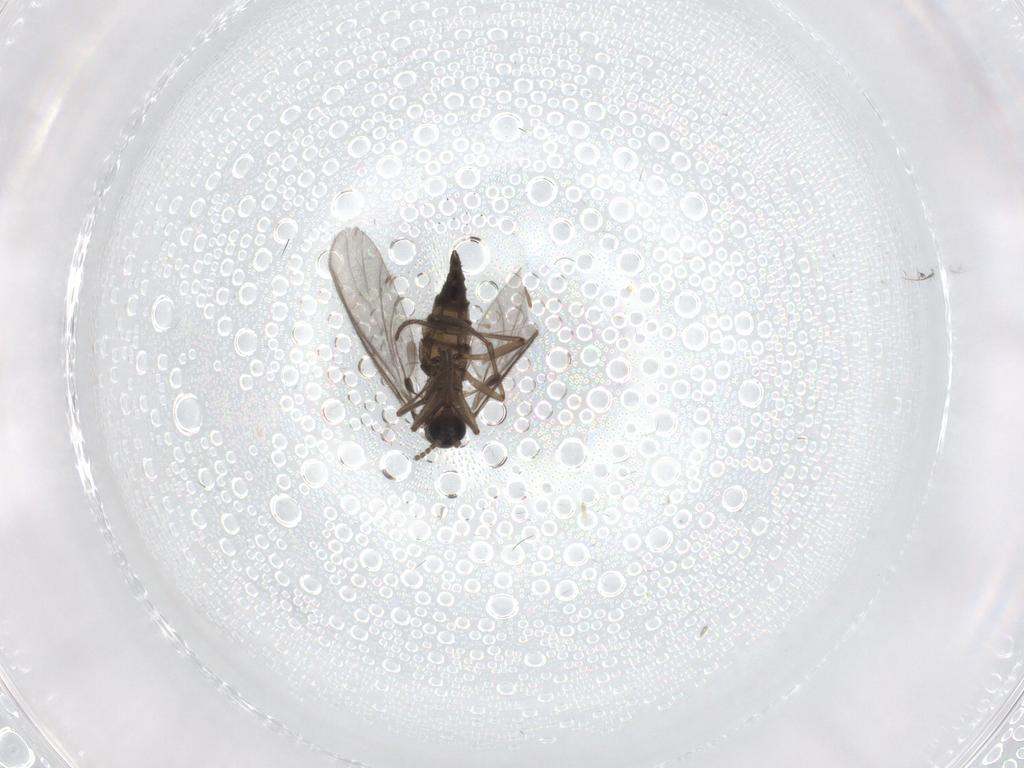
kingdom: Animalia
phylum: Arthropoda
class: Insecta
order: Diptera
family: Sciaridae
